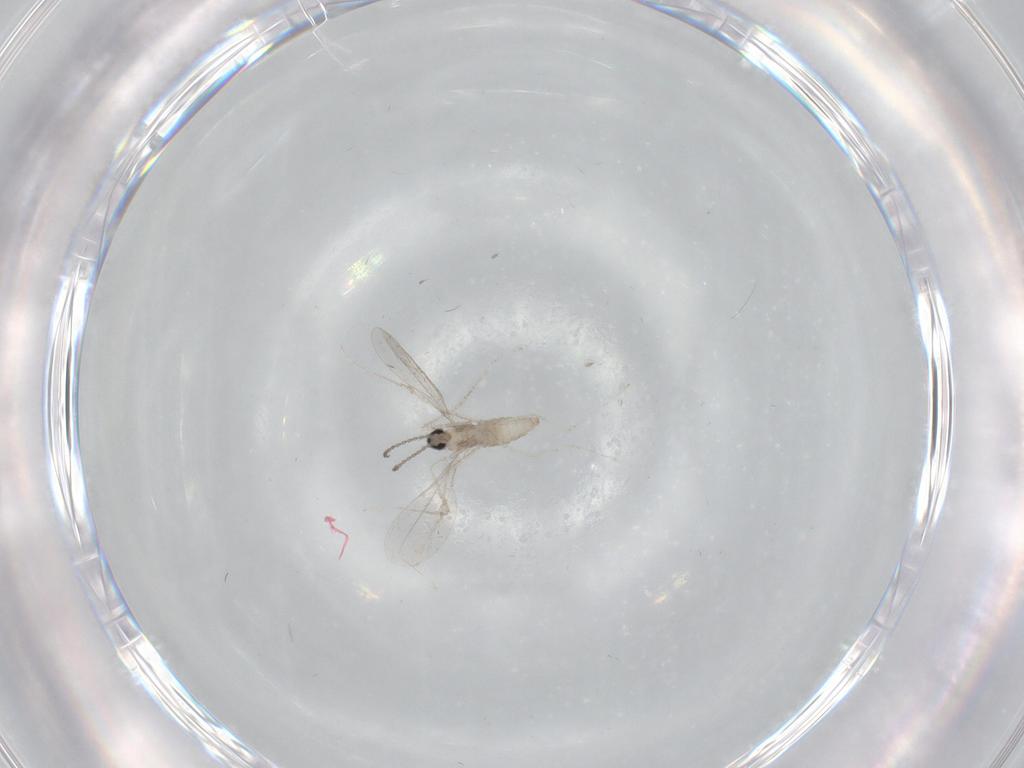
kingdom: Animalia
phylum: Arthropoda
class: Insecta
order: Diptera
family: Cecidomyiidae
